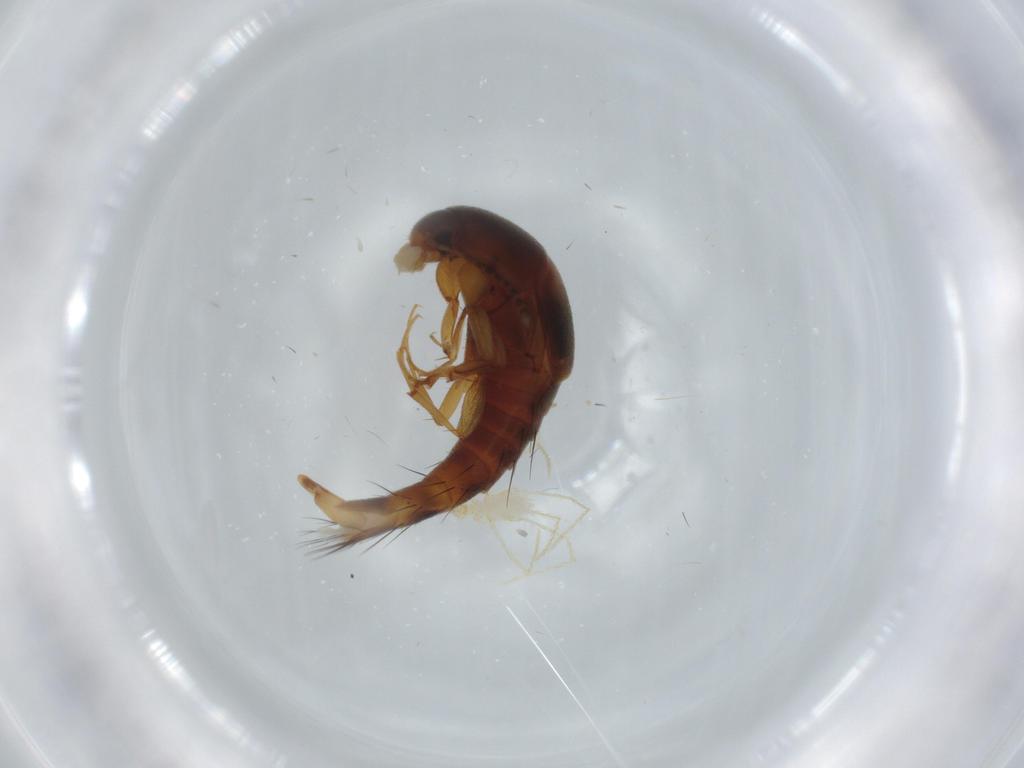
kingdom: Animalia
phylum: Arthropoda
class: Insecta
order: Coleoptera
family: Staphylinidae
